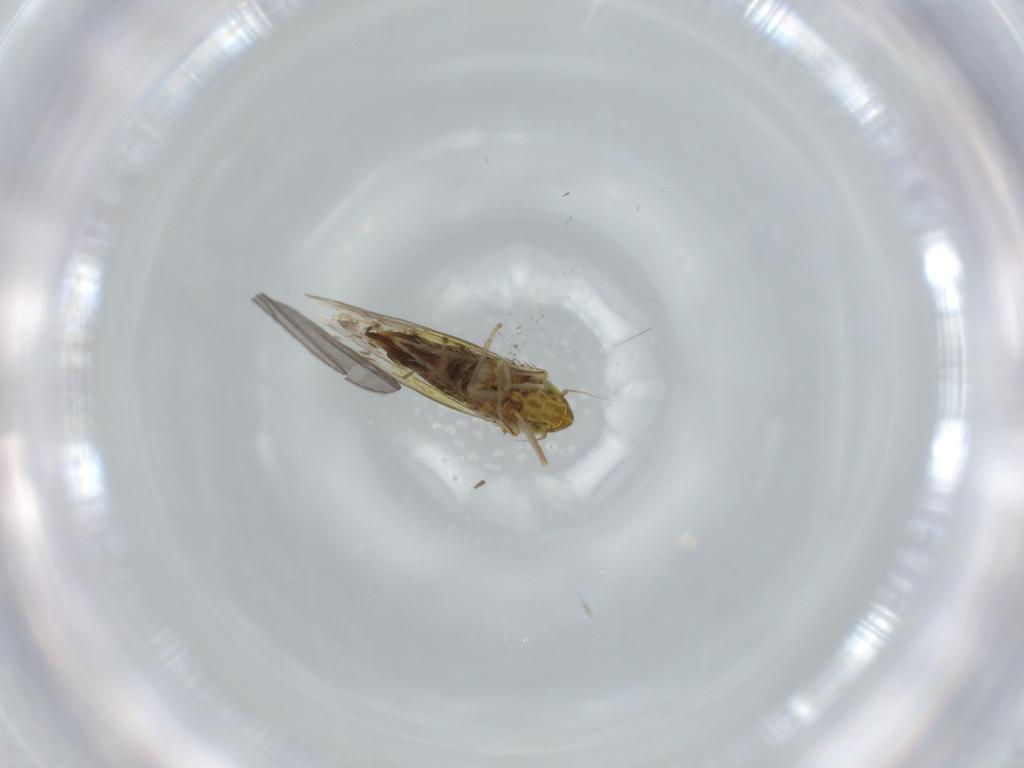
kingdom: Animalia
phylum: Arthropoda
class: Insecta
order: Hemiptera
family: Cicadellidae
